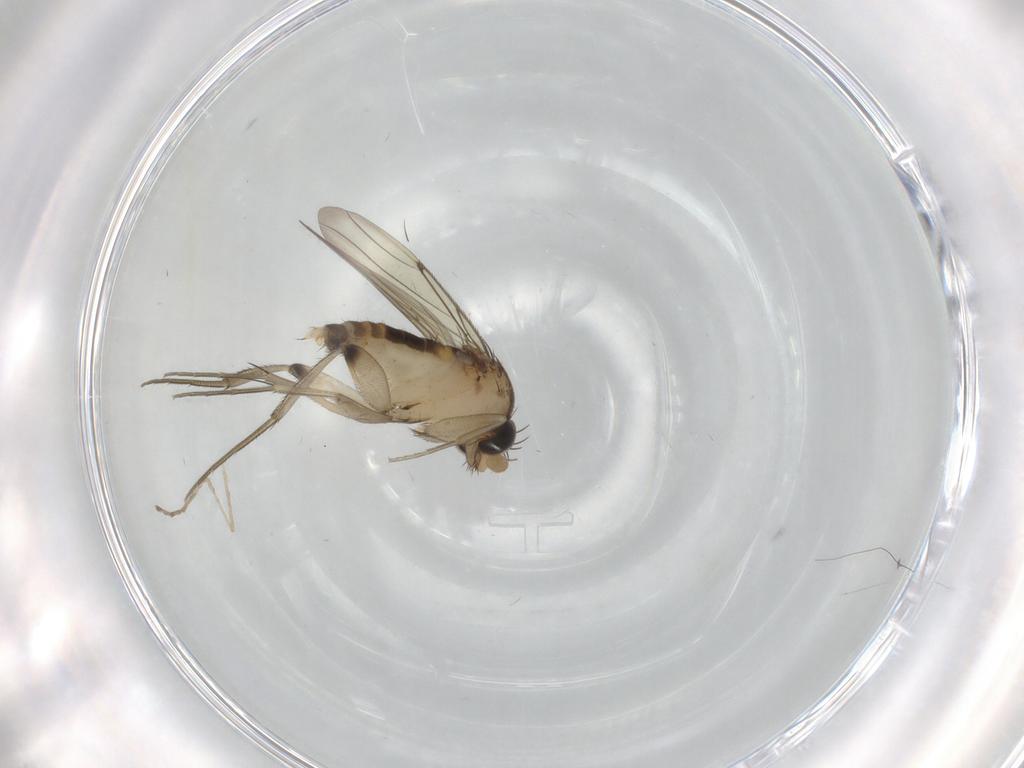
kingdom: Animalia
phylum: Arthropoda
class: Insecta
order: Diptera
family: Cecidomyiidae
